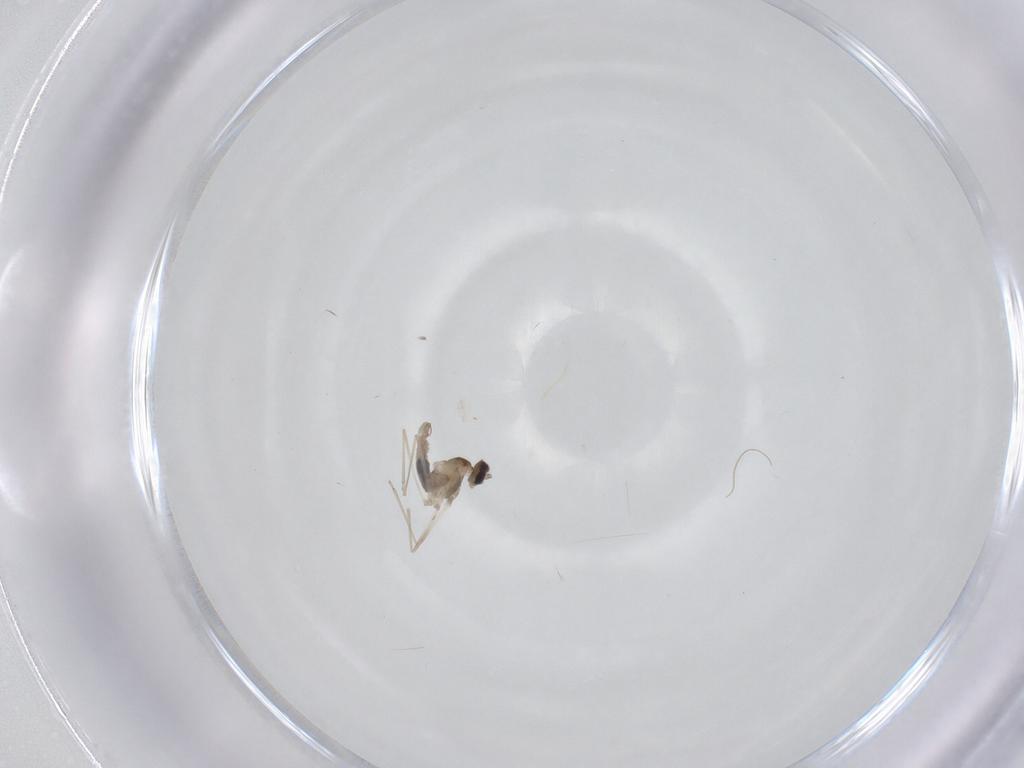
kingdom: Animalia
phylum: Arthropoda
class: Insecta
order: Diptera
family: Cecidomyiidae
